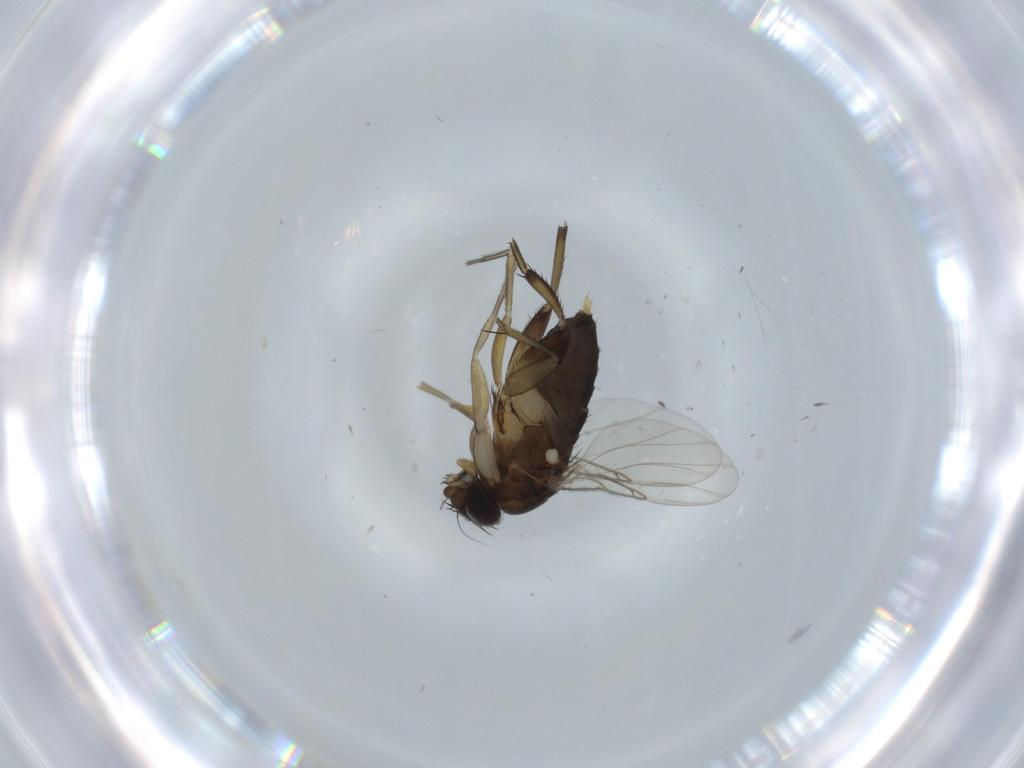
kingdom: Animalia
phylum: Arthropoda
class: Insecta
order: Diptera
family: Phoridae
